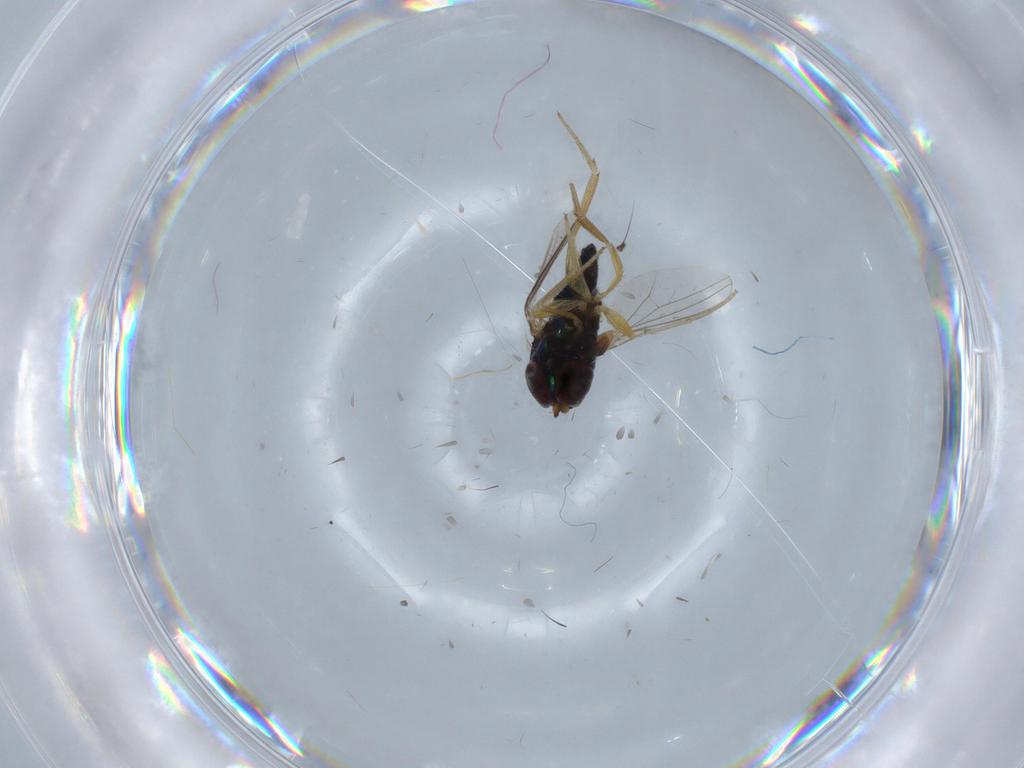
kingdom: Animalia
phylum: Arthropoda
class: Insecta
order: Diptera
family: Dolichopodidae
